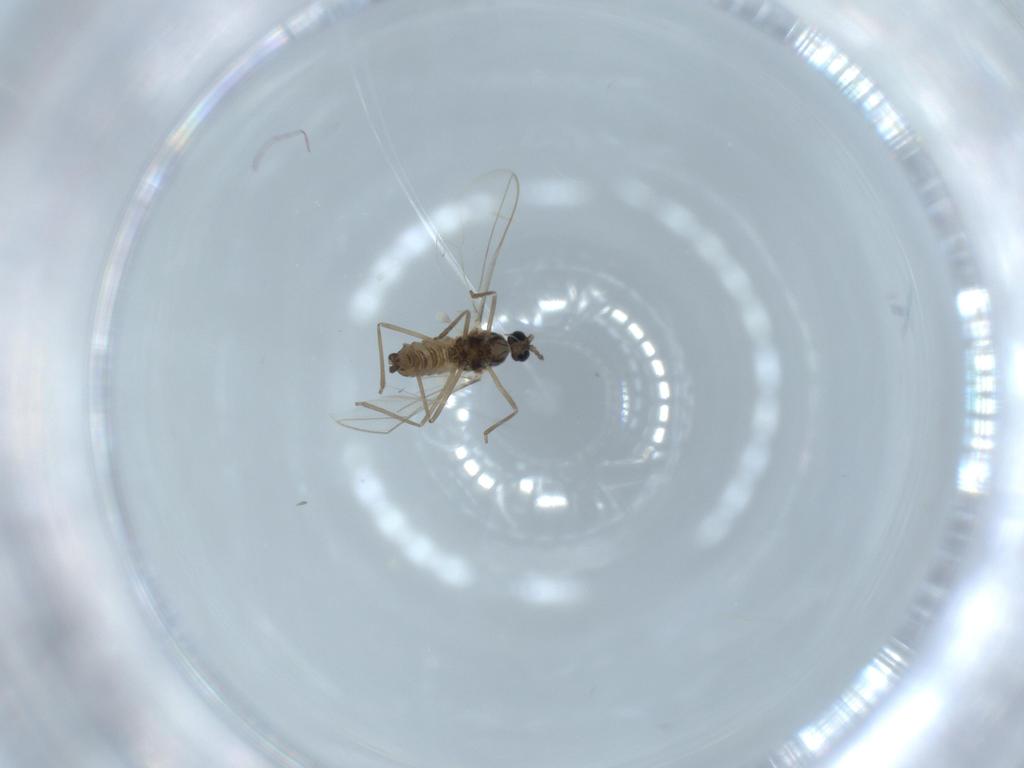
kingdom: Animalia
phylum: Arthropoda
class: Insecta
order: Diptera
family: Cecidomyiidae
